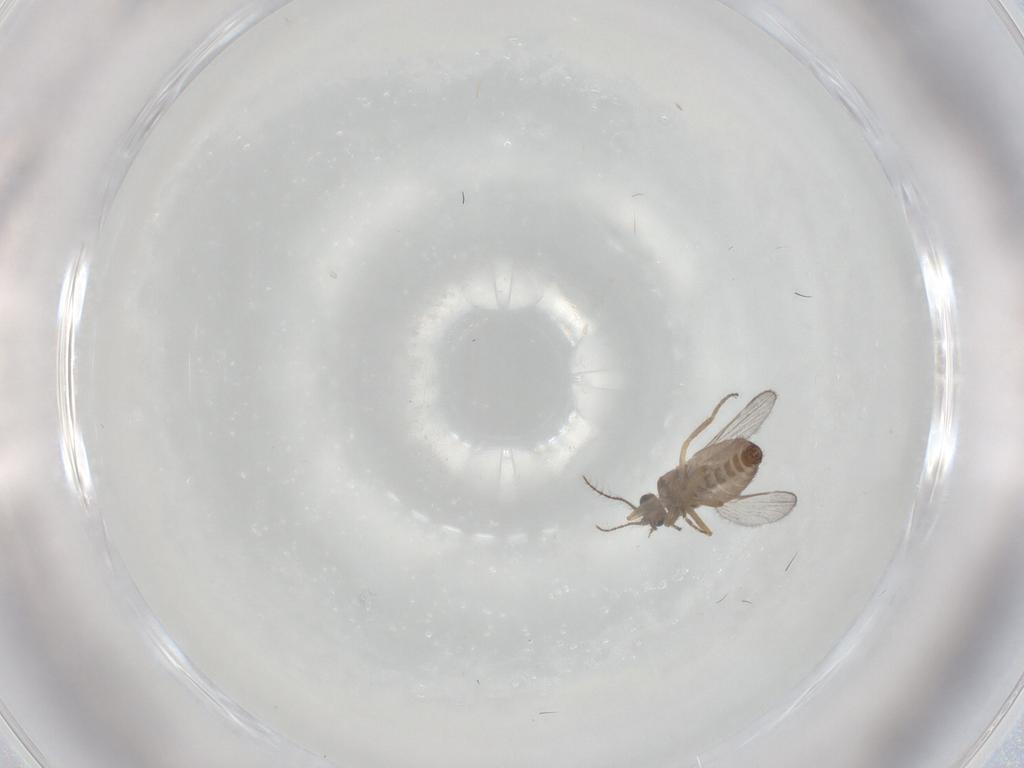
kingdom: Animalia
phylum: Arthropoda
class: Insecta
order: Diptera
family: Ceratopogonidae
